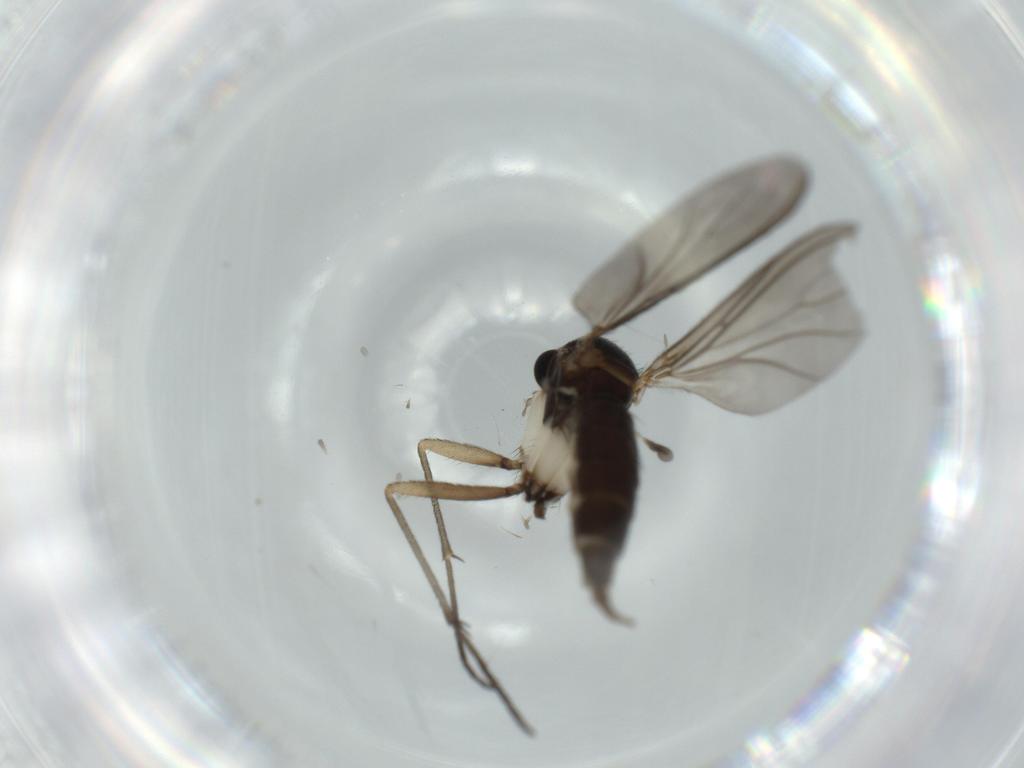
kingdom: Animalia
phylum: Arthropoda
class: Insecta
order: Diptera
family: Sciaridae
